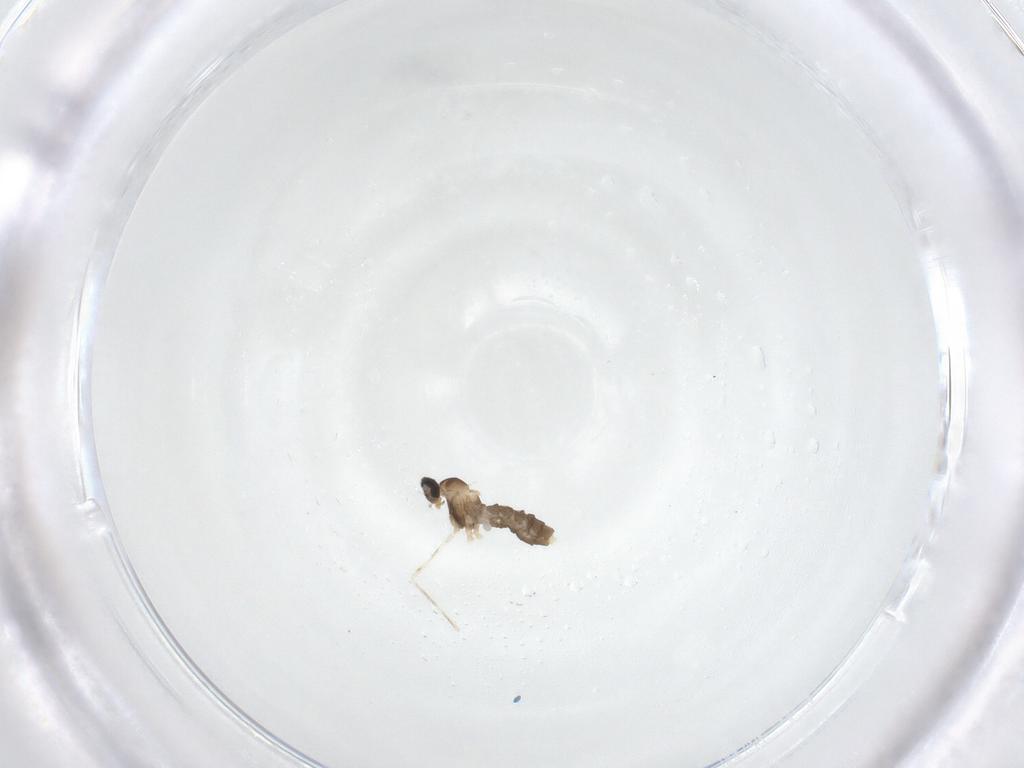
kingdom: Animalia
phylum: Arthropoda
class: Insecta
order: Diptera
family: Cecidomyiidae
